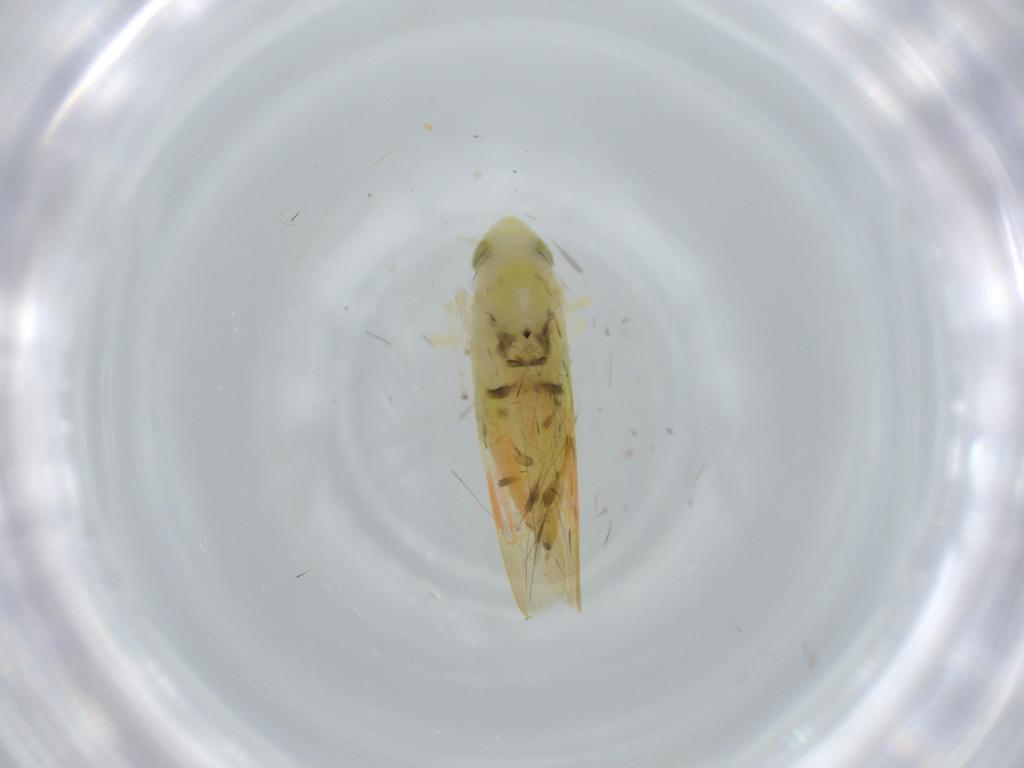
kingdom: Animalia
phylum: Arthropoda
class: Insecta
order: Hemiptera
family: Cicadellidae
